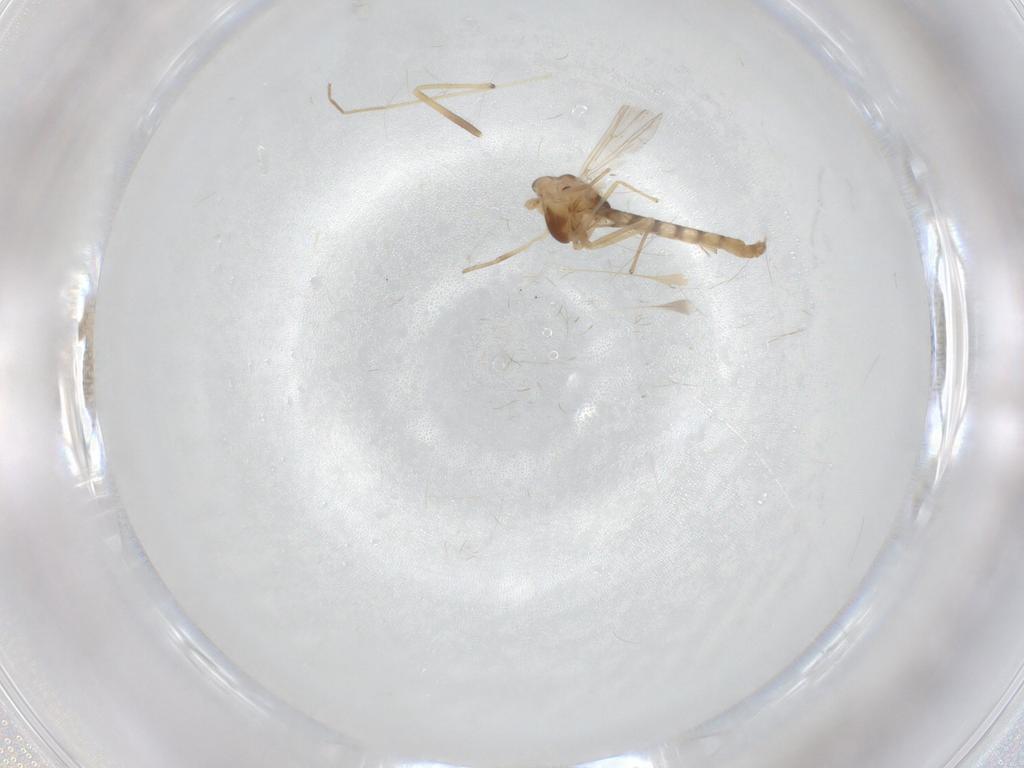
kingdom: Animalia
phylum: Arthropoda
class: Insecta
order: Diptera
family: Chironomidae
